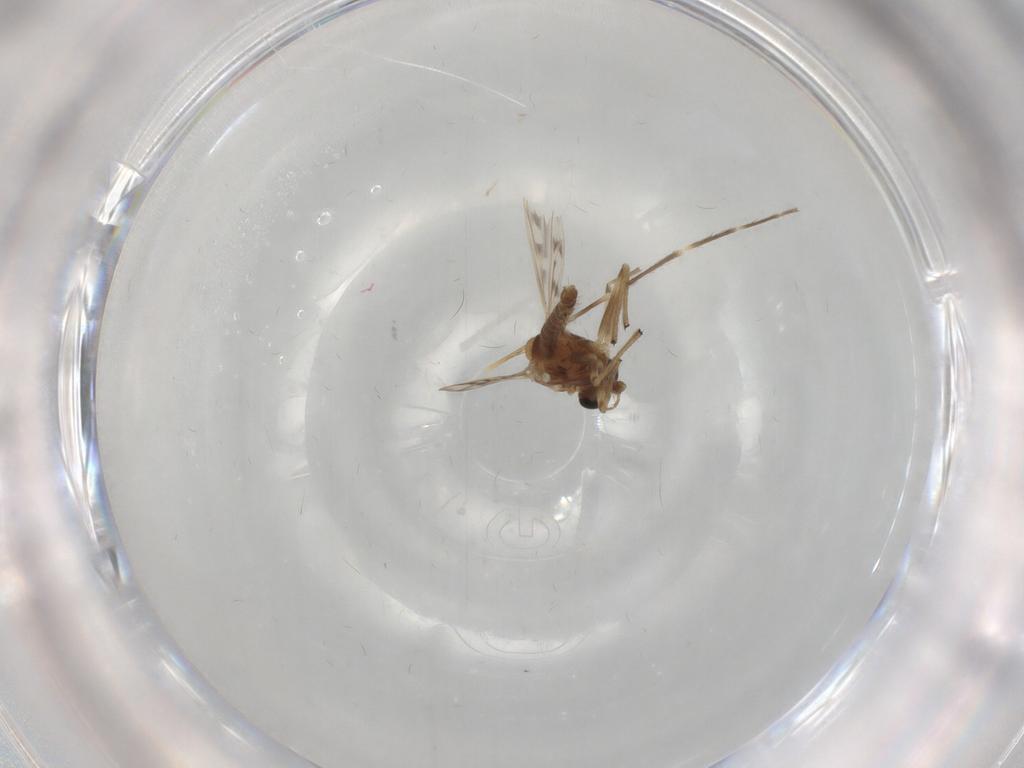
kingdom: Animalia
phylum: Arthropoda
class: Insecta
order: Diptera
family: Chironomidae
